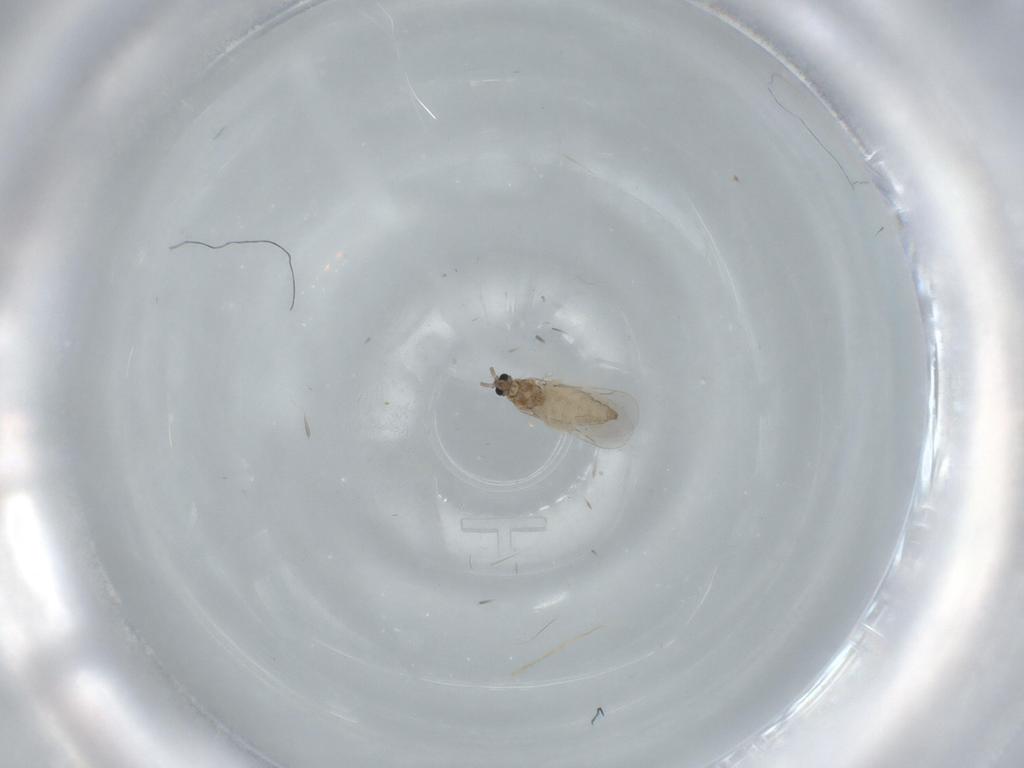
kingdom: Animalia
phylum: Arthropoda
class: Insecta
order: Diptera
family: Cecidomyiidae
